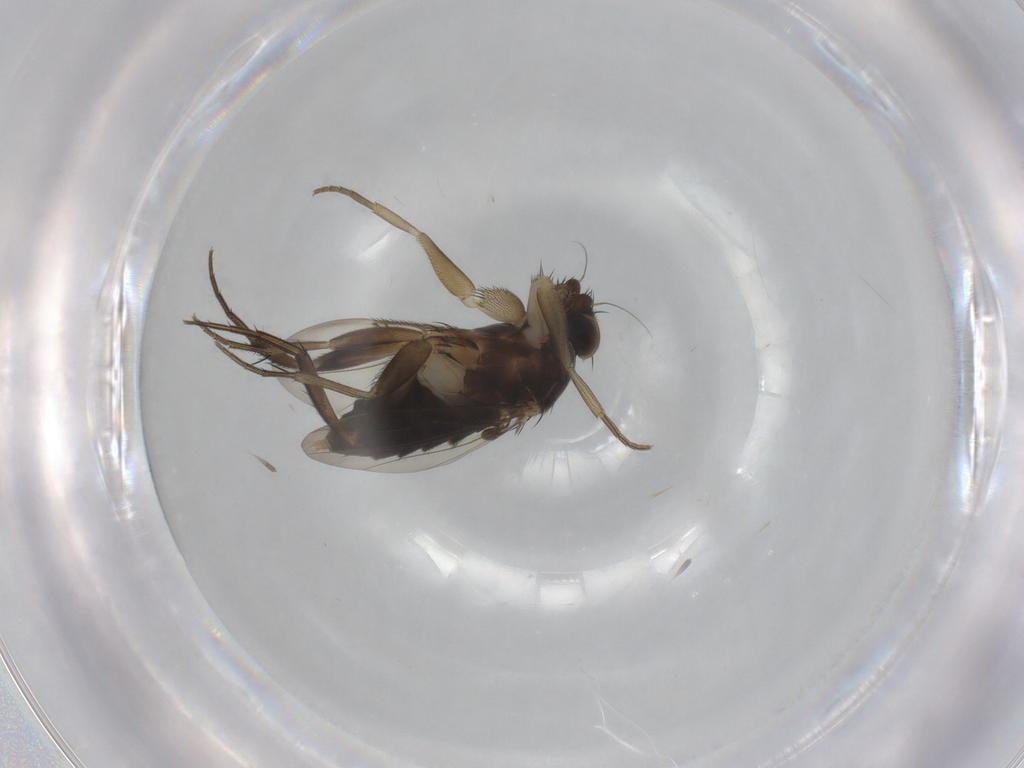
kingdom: Animalia
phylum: Arthropoda
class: Insecta
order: Diptera
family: Phoridae
